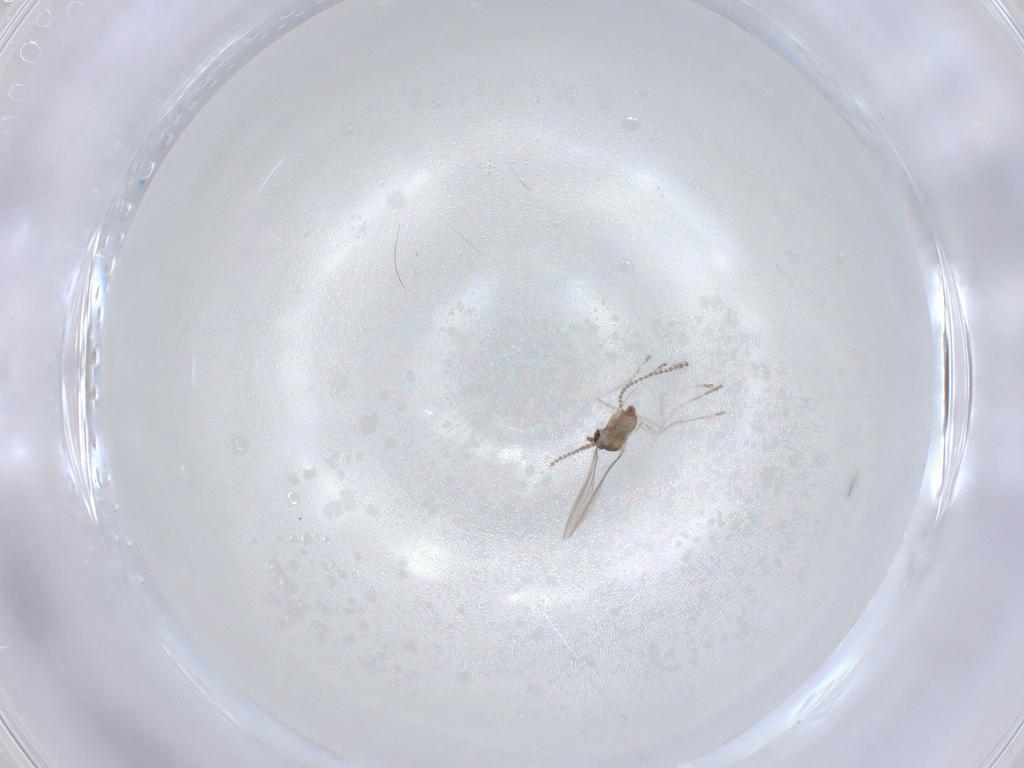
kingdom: Animalia
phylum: Arthropoda
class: Insecta
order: Diptera
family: Cecidomyiidae
